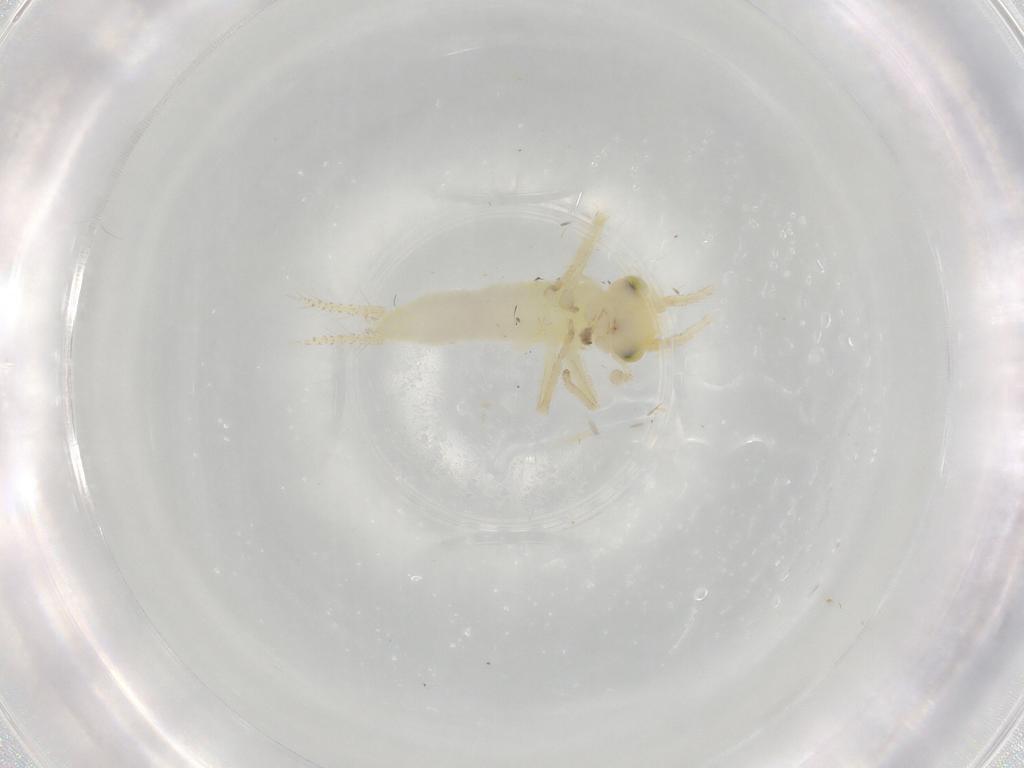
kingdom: Animalia
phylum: Arthropoda
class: Insecta
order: Orthoptera
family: Trigonidiidae
